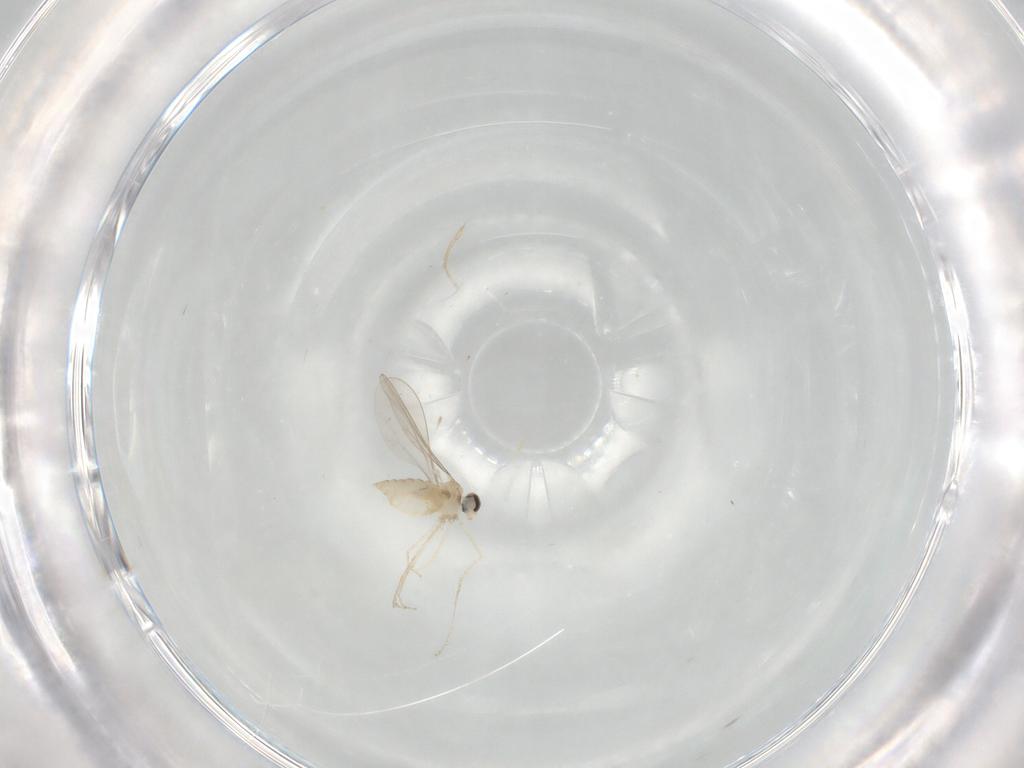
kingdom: Animalia
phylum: Arthropoda
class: Insecta
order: Diptera
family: Cecidomyiidae
